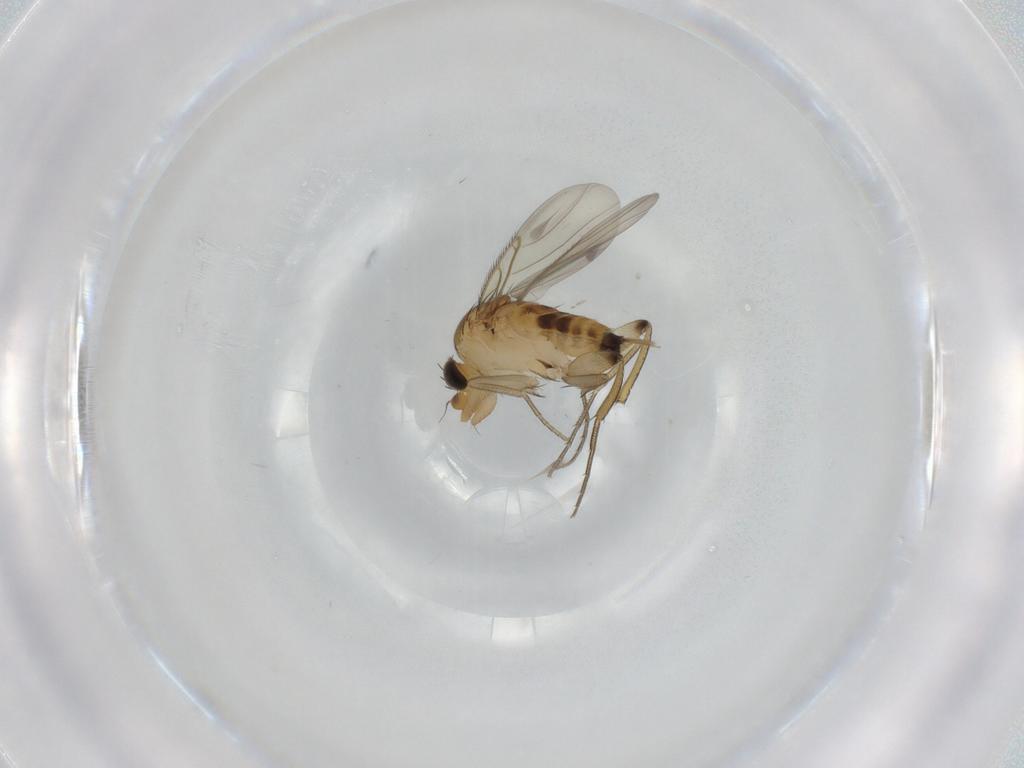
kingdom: Animalia
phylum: Arthropoda
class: Insecta
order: Diptera
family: Phoridae
